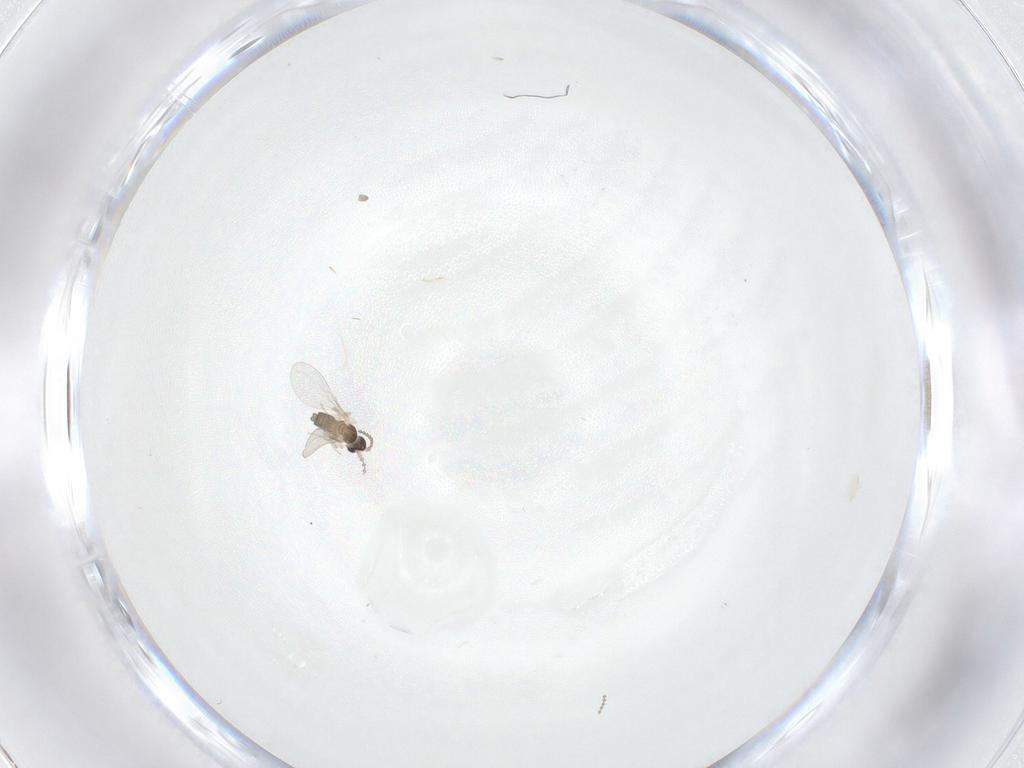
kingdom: Animalia
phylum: Arthropoda
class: Insecta
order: Diptera
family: Cecidomyiidae
